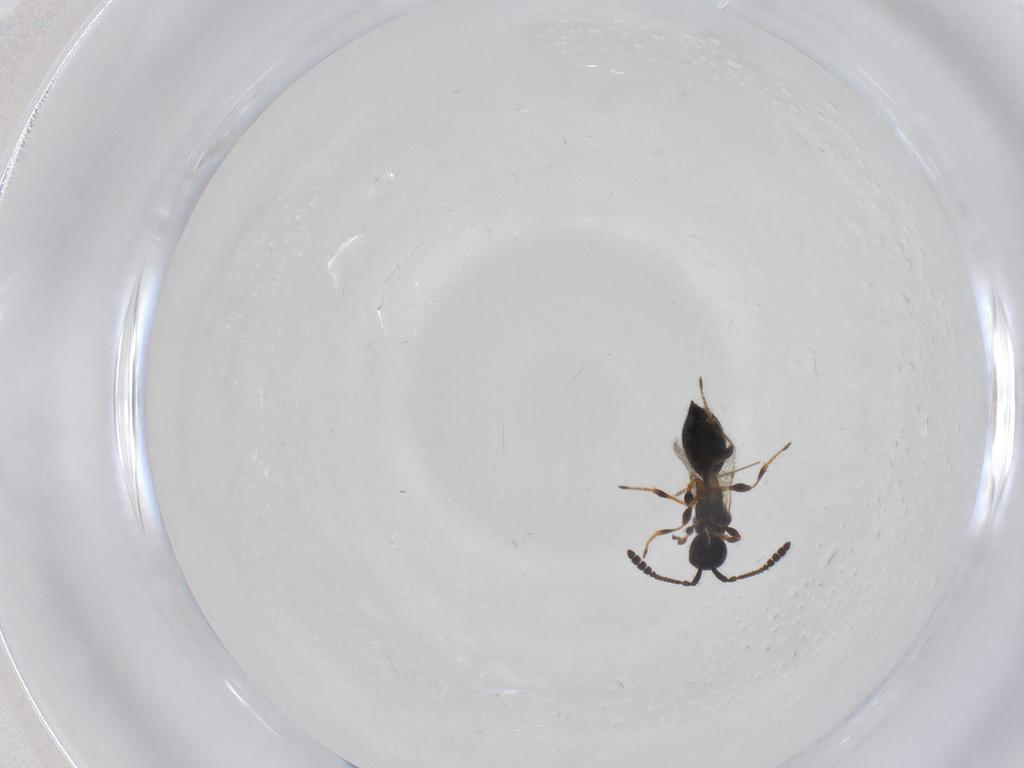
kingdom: Animalia
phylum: Arthropoda
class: Insecta
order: Hymenoptera
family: Diapriidae
